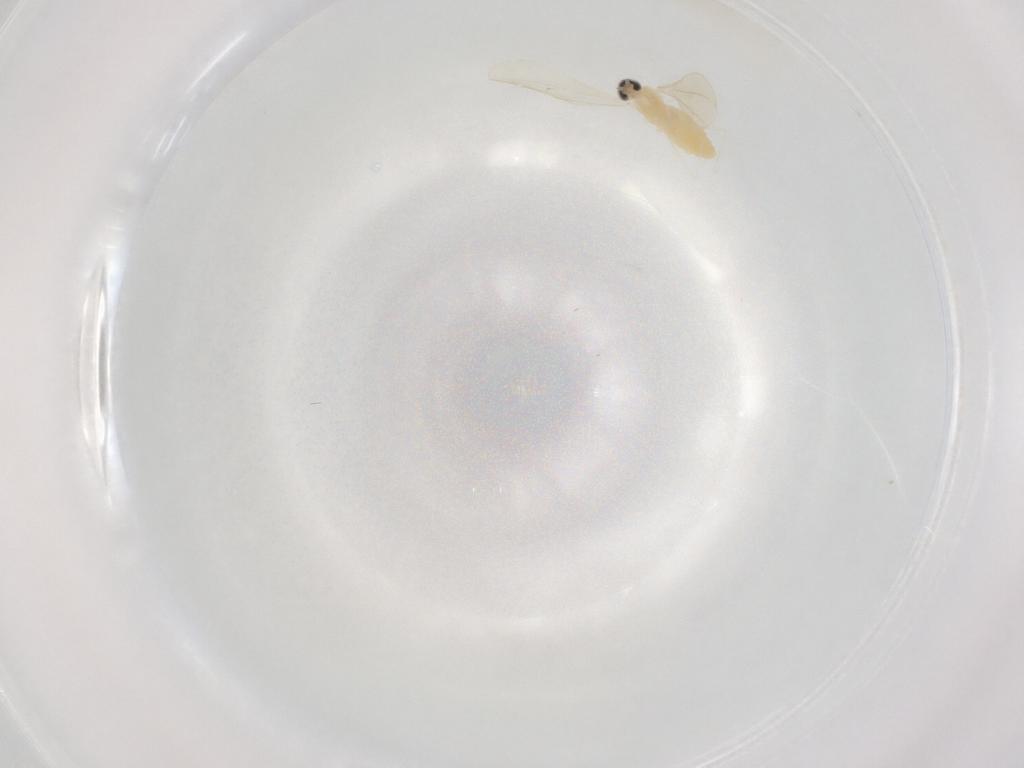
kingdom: Animalia
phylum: Arthropoda
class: Insecta
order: Diptera
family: Cecidomyiidae
